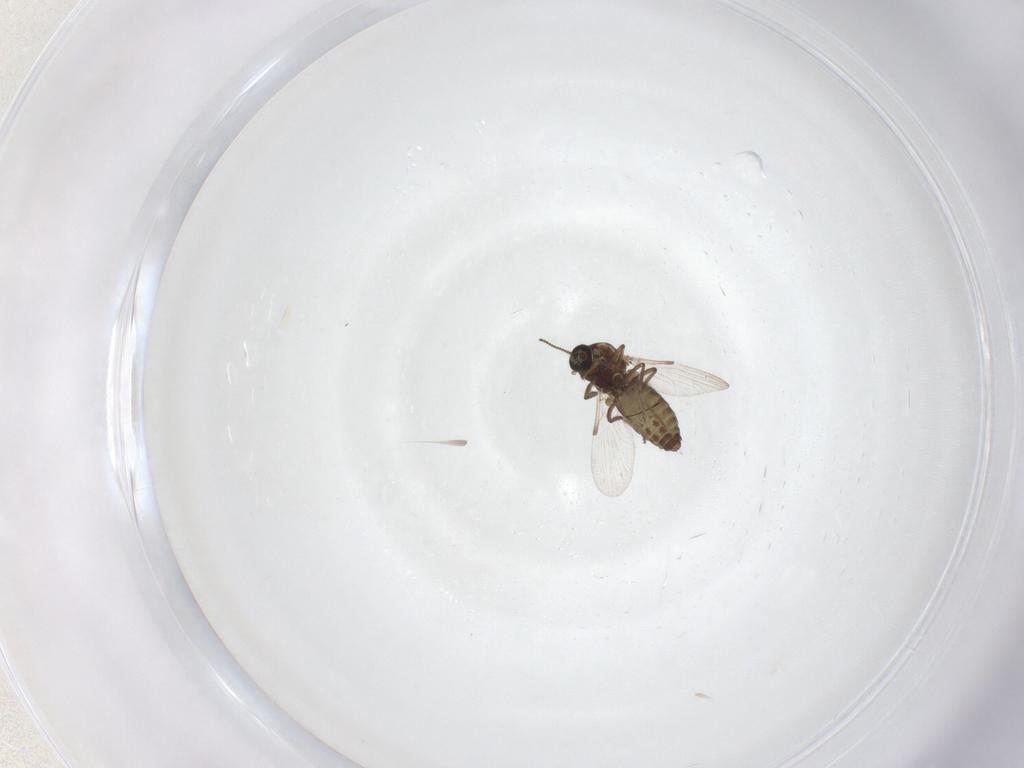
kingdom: Animalia
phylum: Arthropoda
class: Insecta
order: Diptera
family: Ceratopogonidae
